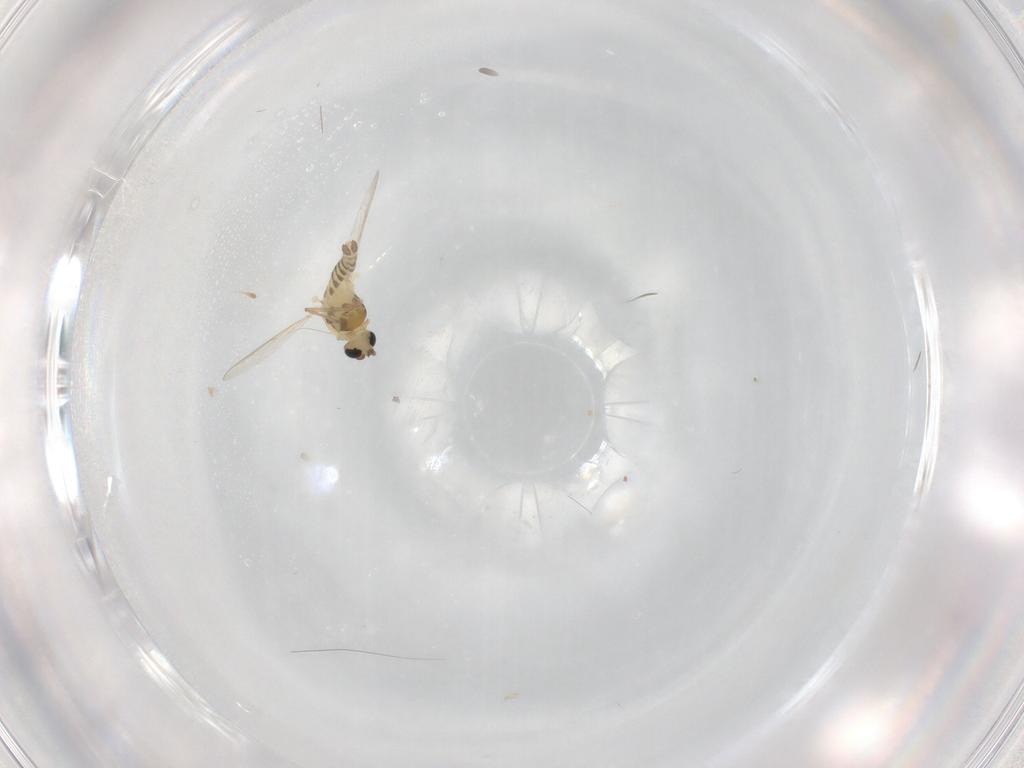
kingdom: Animalia
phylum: Arthropoda
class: Insecta
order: Diptera
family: Chironomidae
